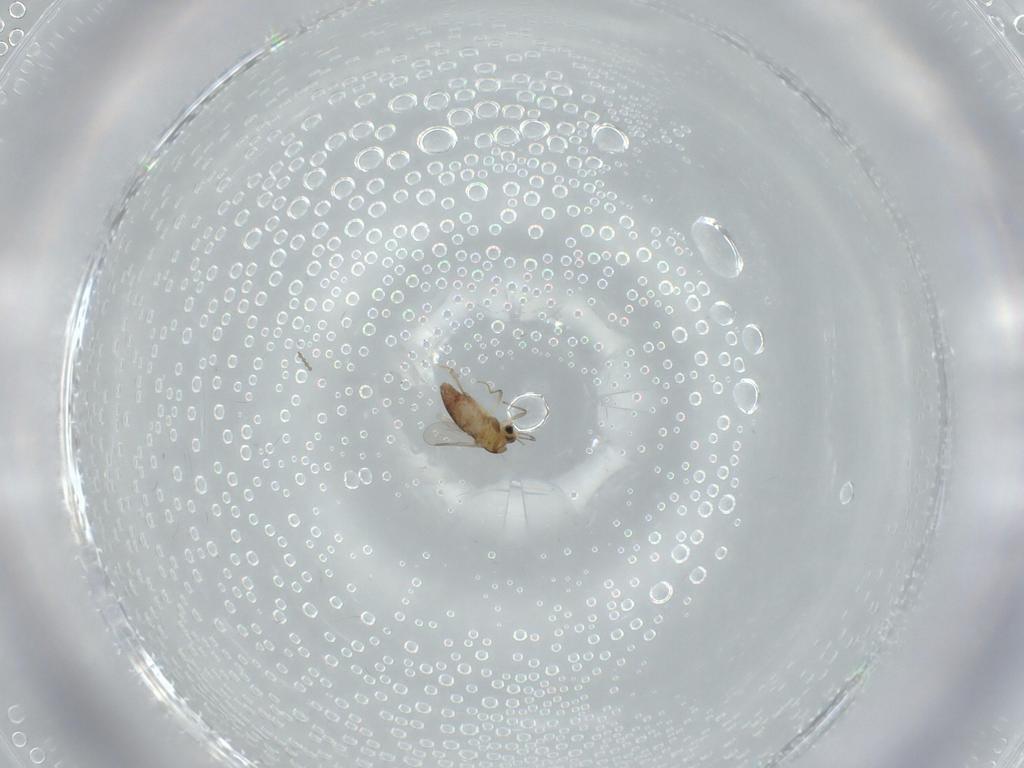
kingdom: Animalia
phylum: Arthropoda
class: Insecta
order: Diptera
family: Cecidomyiidae
